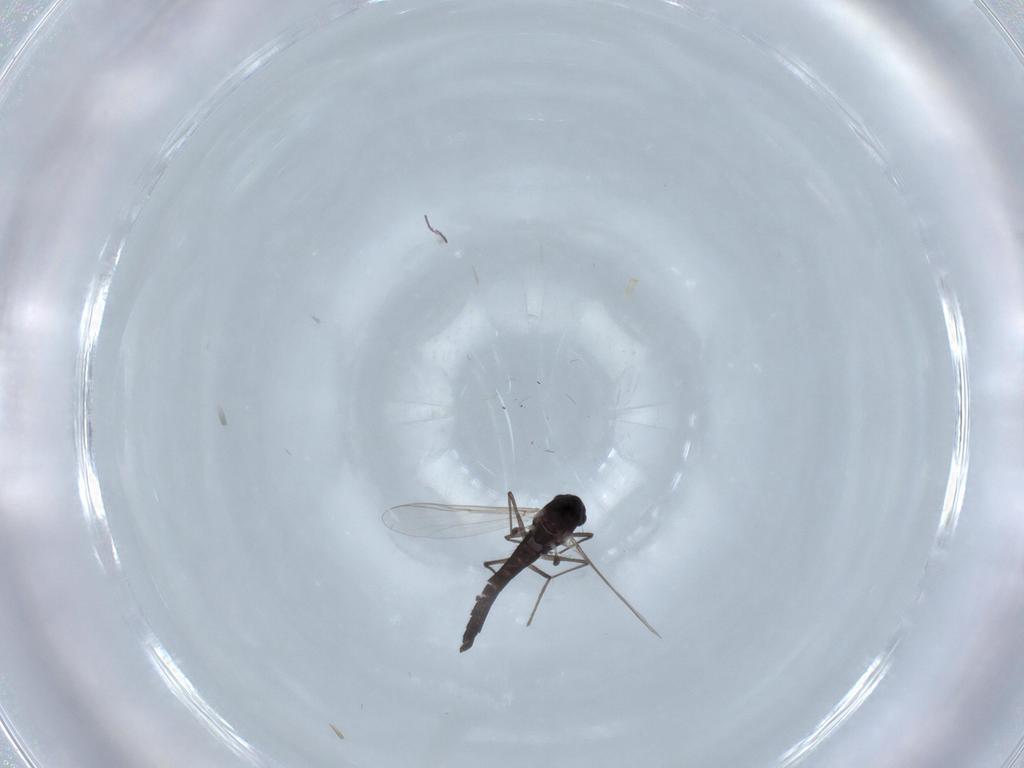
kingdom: Animalia
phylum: Arthropoda
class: Insecta
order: Diptera
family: Chironomidae
